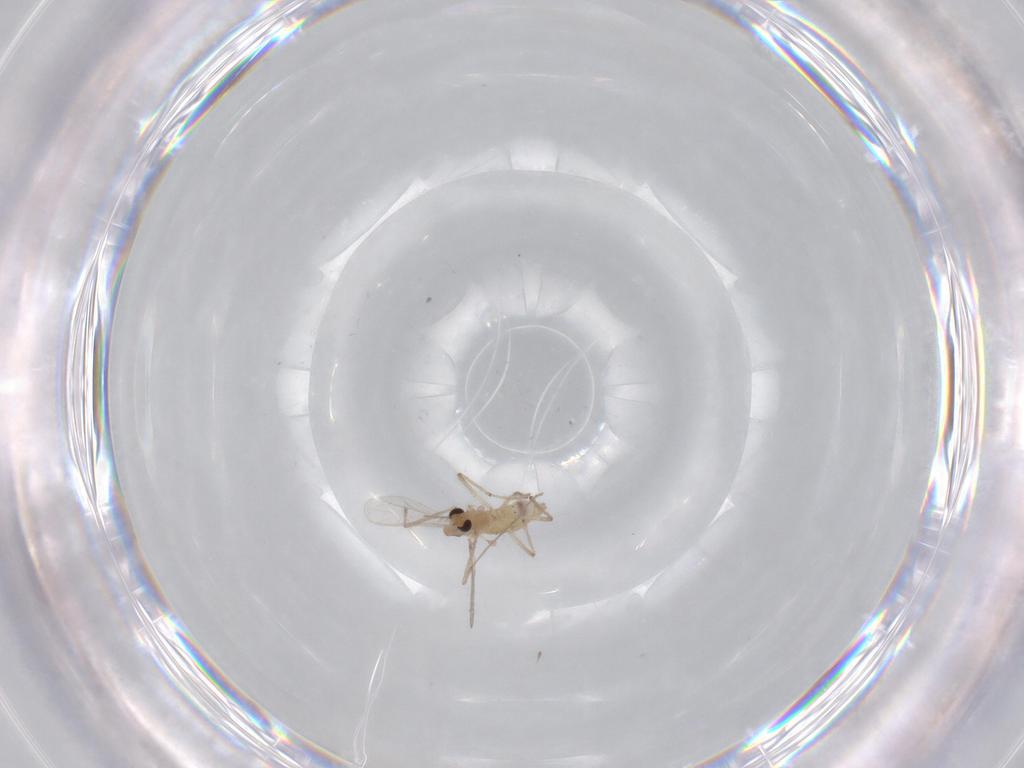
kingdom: Animalia
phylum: Arthropoda
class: Insecta
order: Diptera
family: Chironomidae
